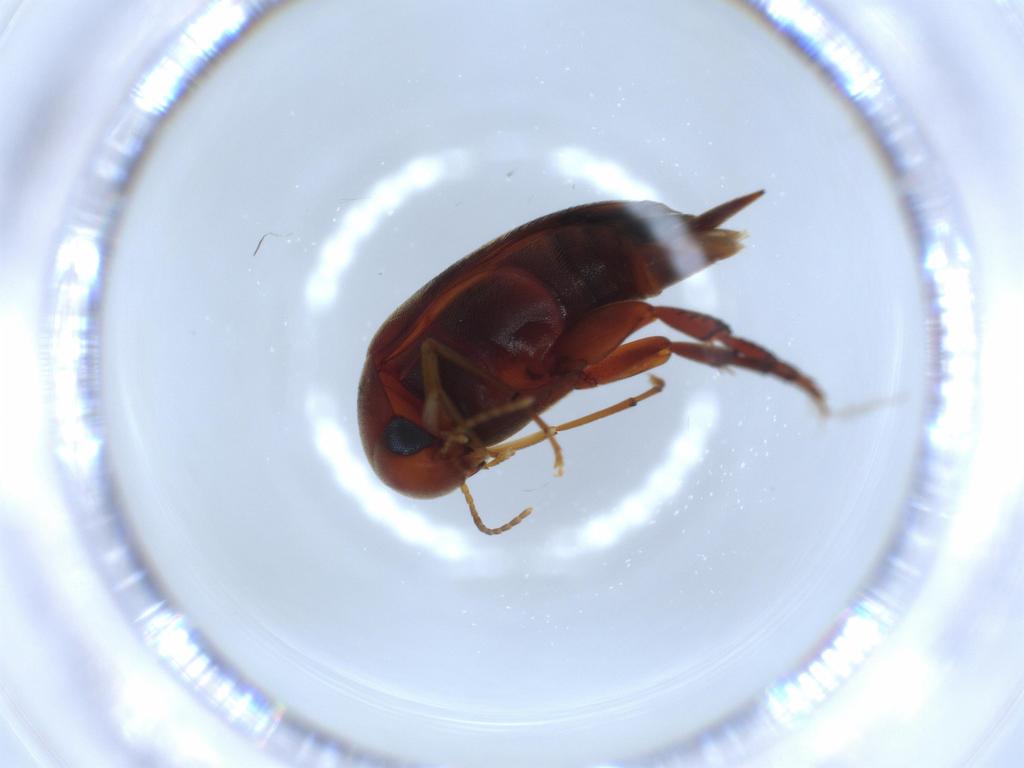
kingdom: Animalia
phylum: Arthropoda
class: Insecta
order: Coleoptera
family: Mordellidae
